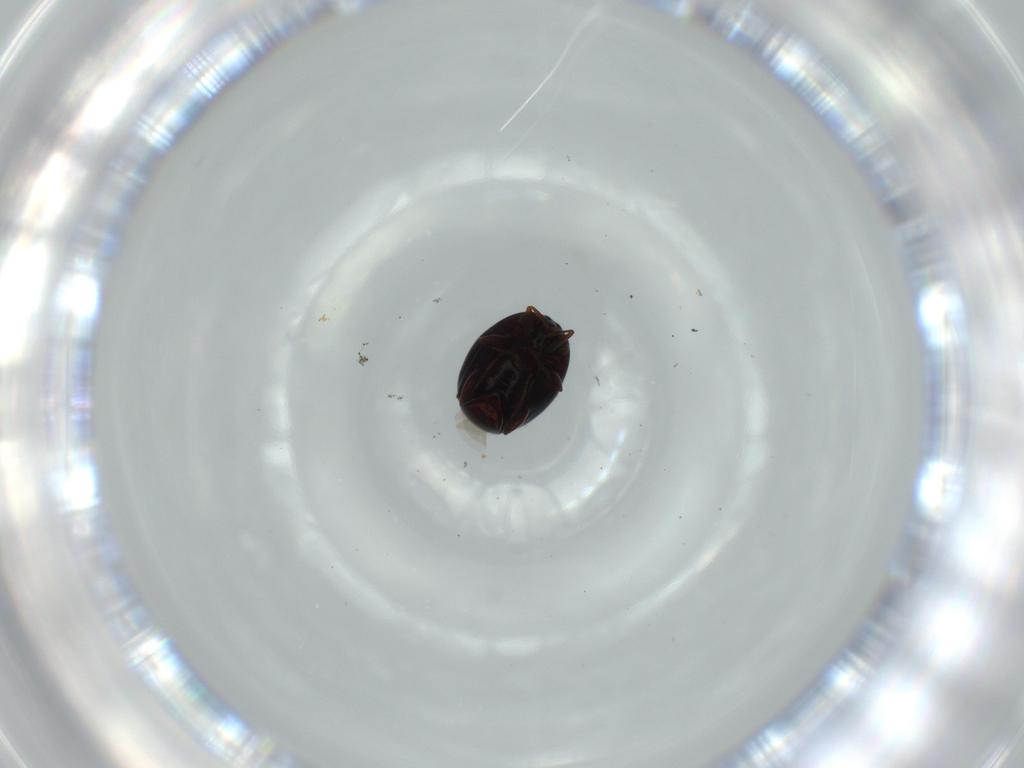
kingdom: Animalia
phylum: Arthropoda
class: Insecta
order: Coleoptera
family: Histeridae
